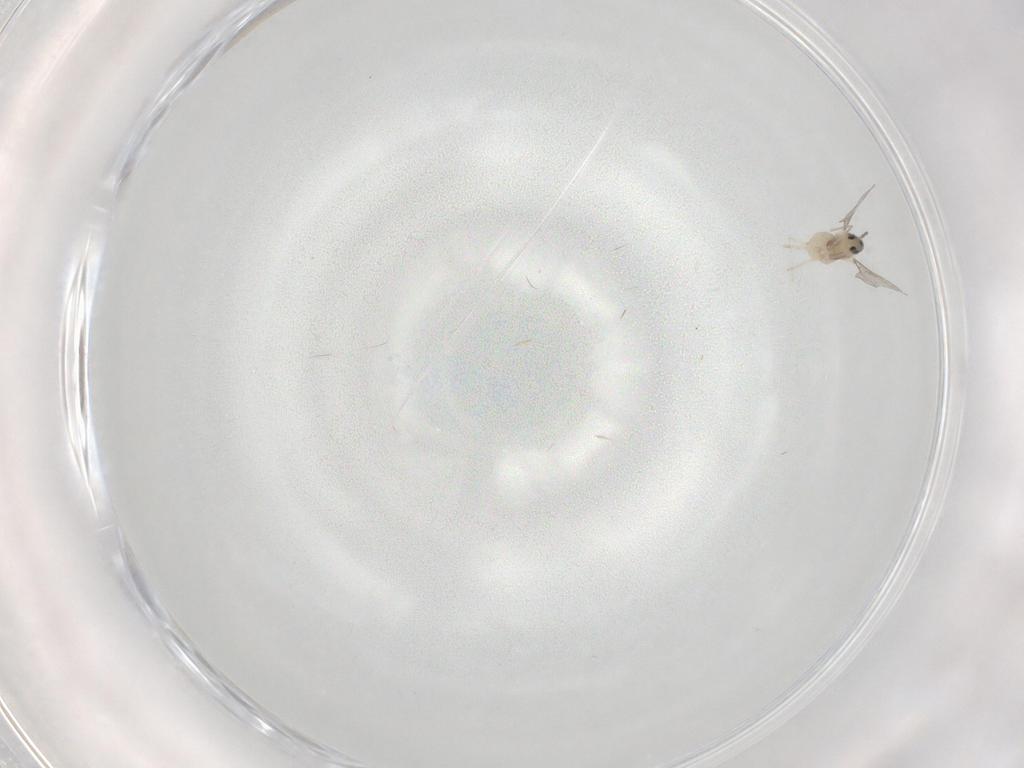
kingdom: Animalia
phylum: Arthropoda
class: Insecta
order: Diptera
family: Cecidomyiidae
